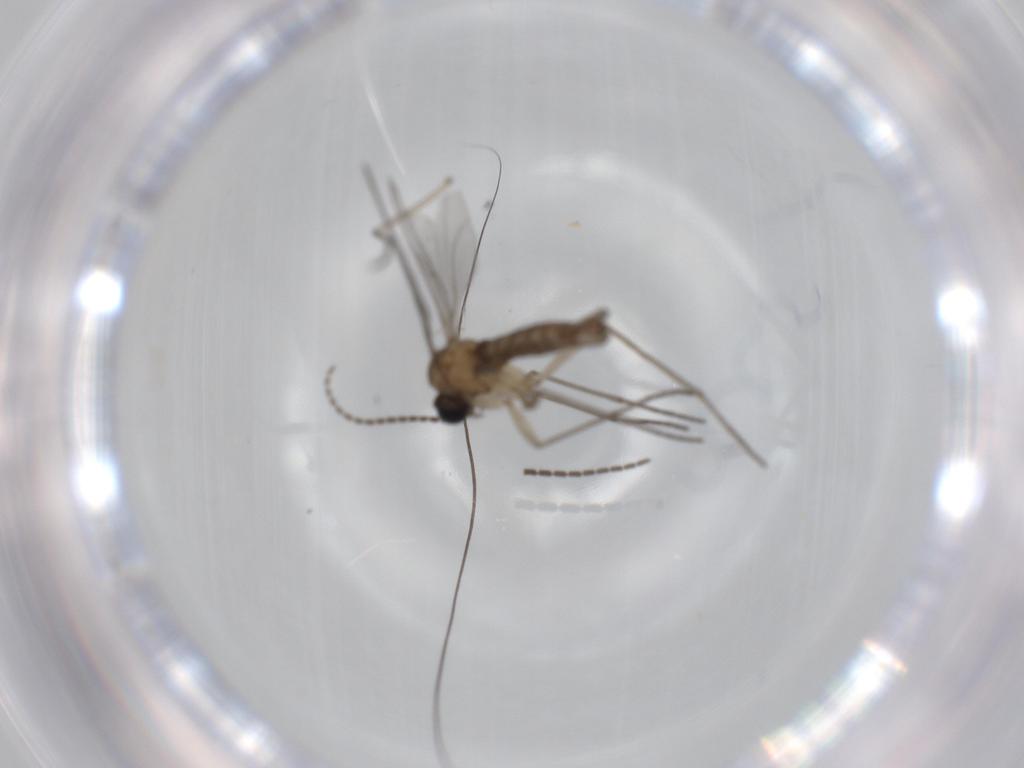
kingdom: Animalia
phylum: Arthropoda
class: Insecta
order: Diptera
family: Sciaridae
